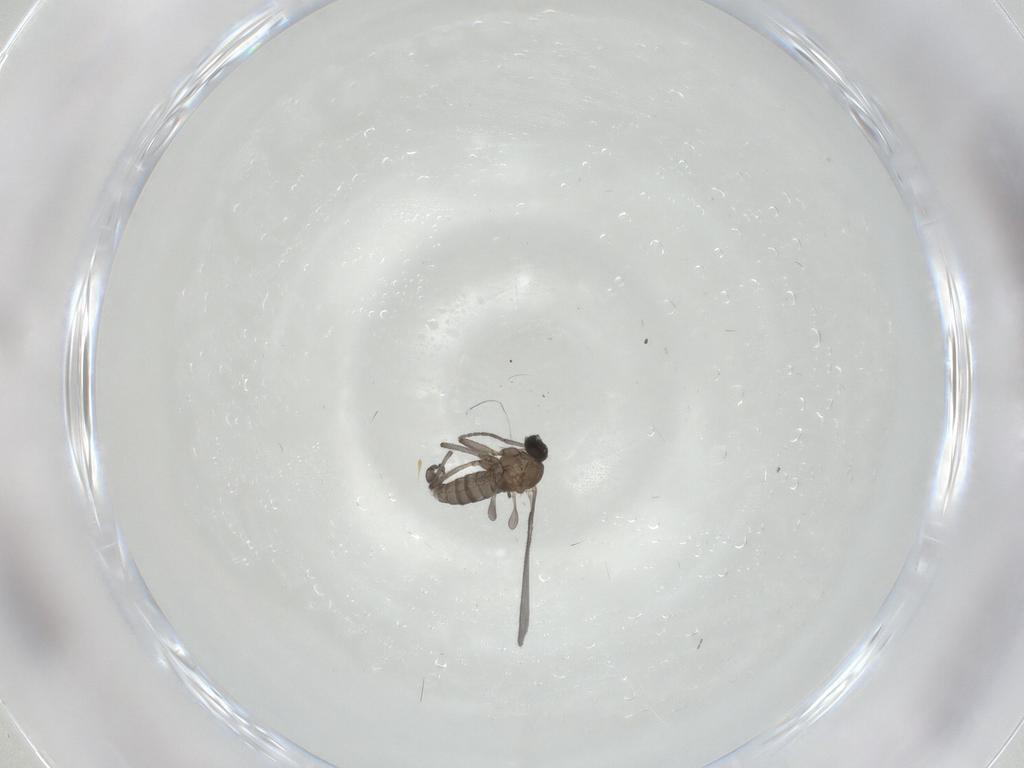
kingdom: Animalia
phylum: Arthropoda
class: Insecta
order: Diptera
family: Sciaridae
